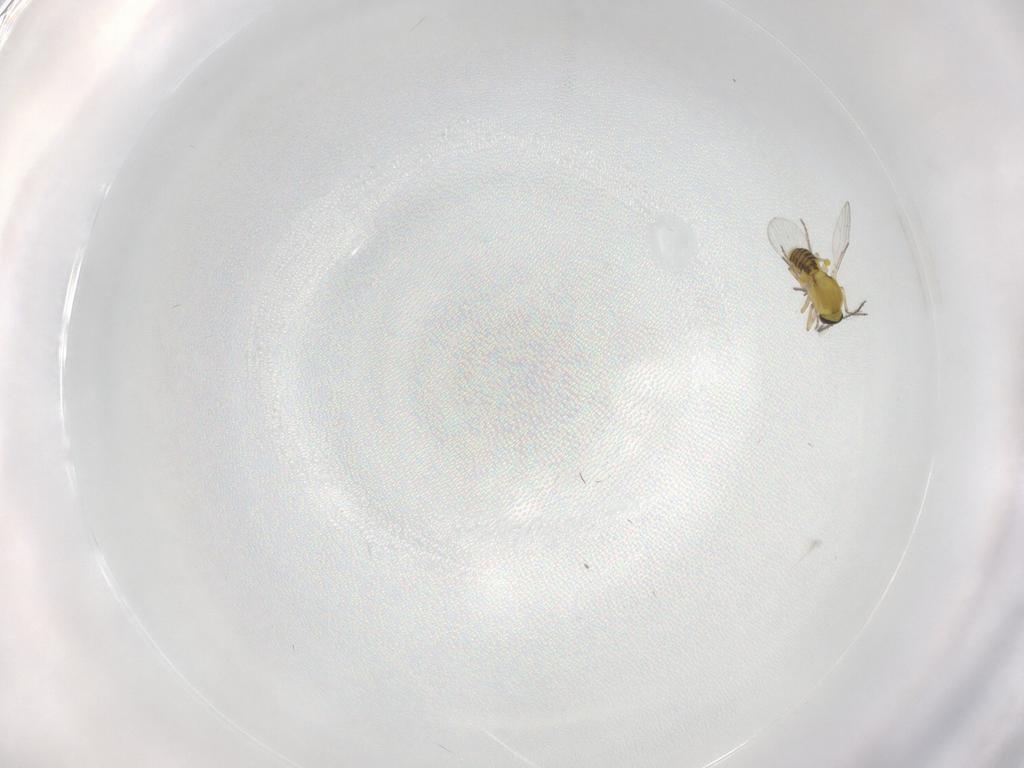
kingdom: Animalia
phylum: Arthropoda
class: Insecta
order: Diptera
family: Ceratopogonidae
